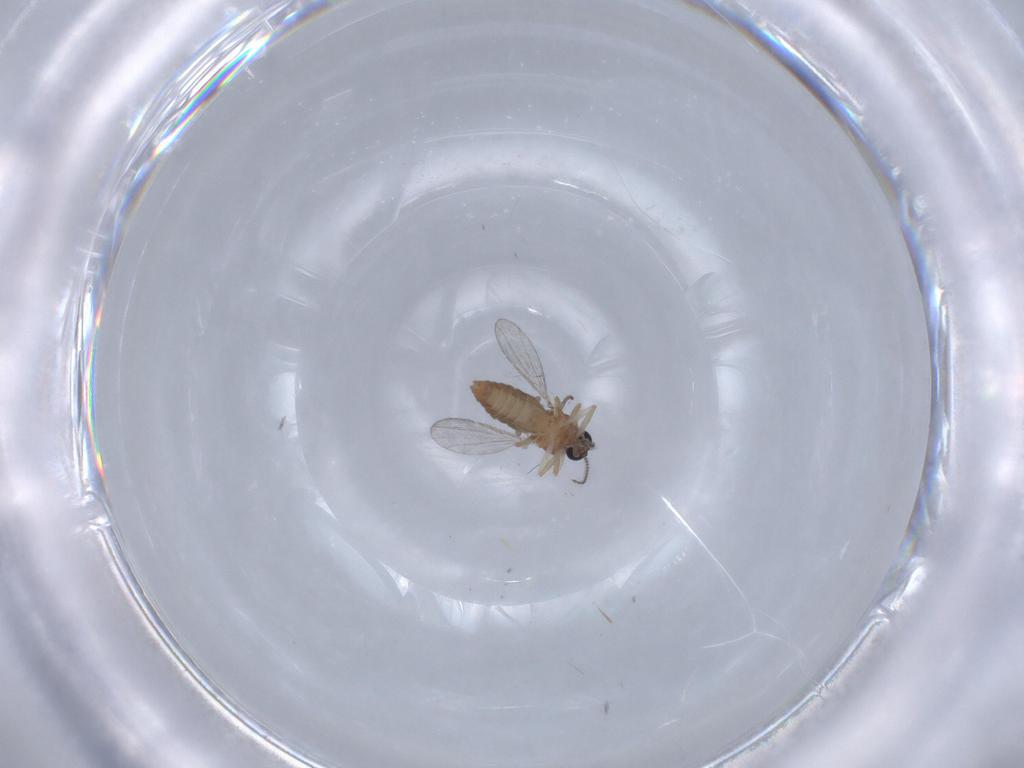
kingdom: Animalia
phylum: Arthropoda
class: Insecta
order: Diptera
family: Ceratopogonidae
